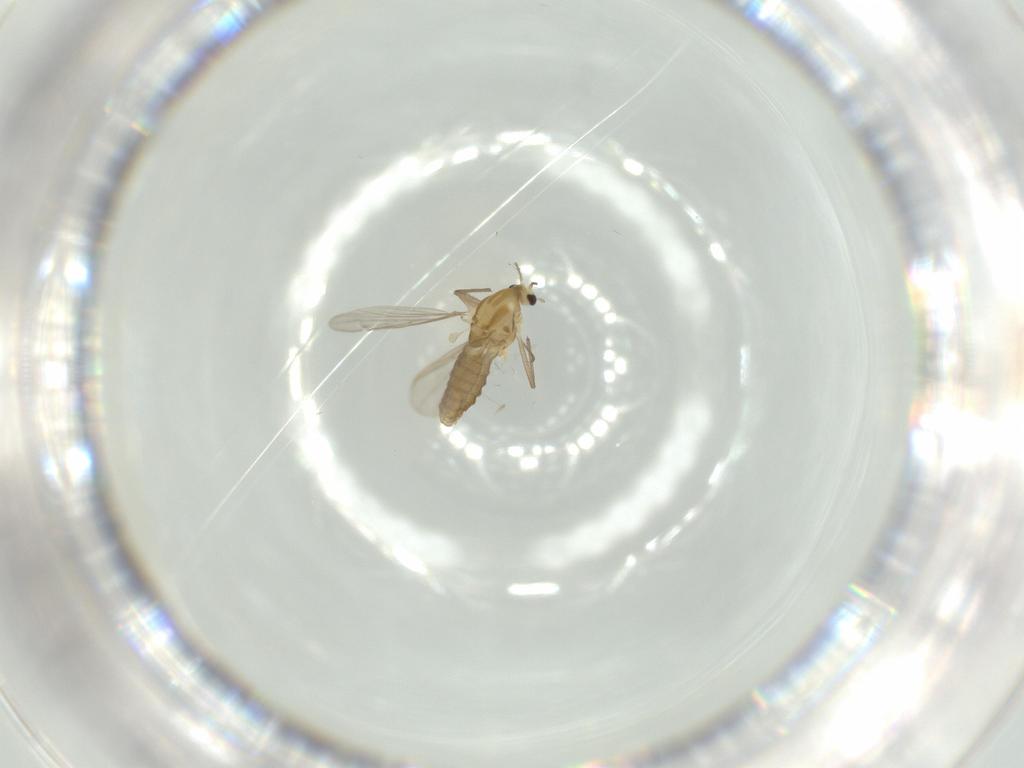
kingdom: Animalia
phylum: Arthropoda
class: Insecta
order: Diptera
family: Chironomidae
